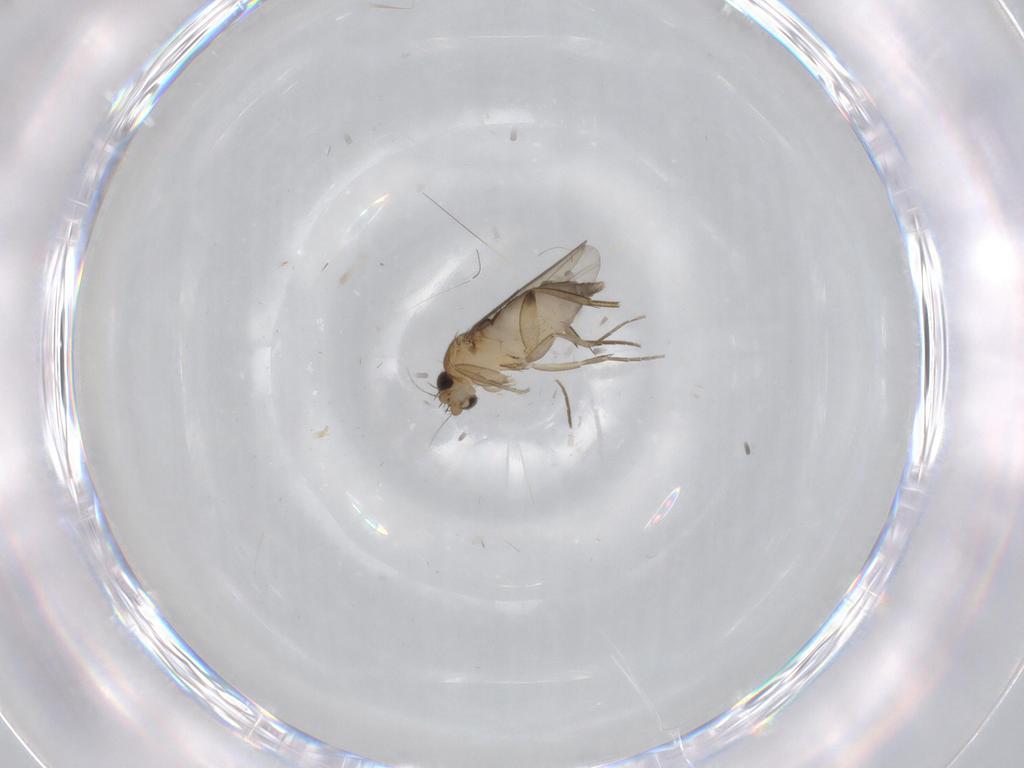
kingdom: Animalia
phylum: Arthropoda
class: Insecta
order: Diptera
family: Phoridae
